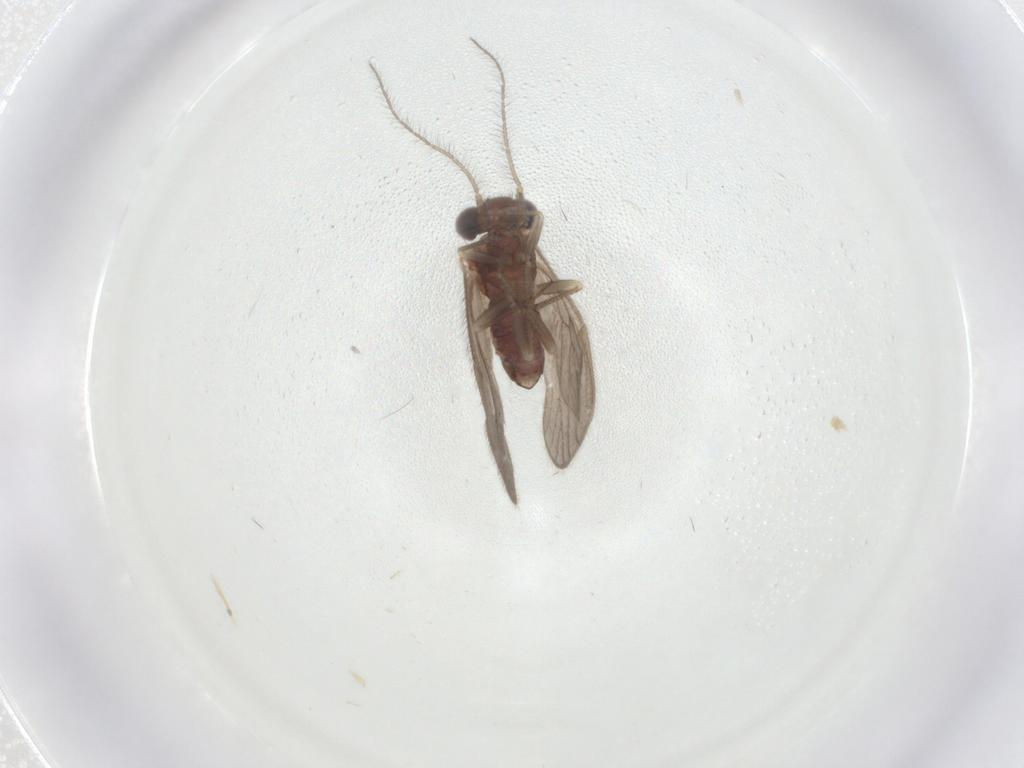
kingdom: Animalia
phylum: Arthropoda
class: Insecta
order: Psocodea
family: Pseudocaeciliidae
